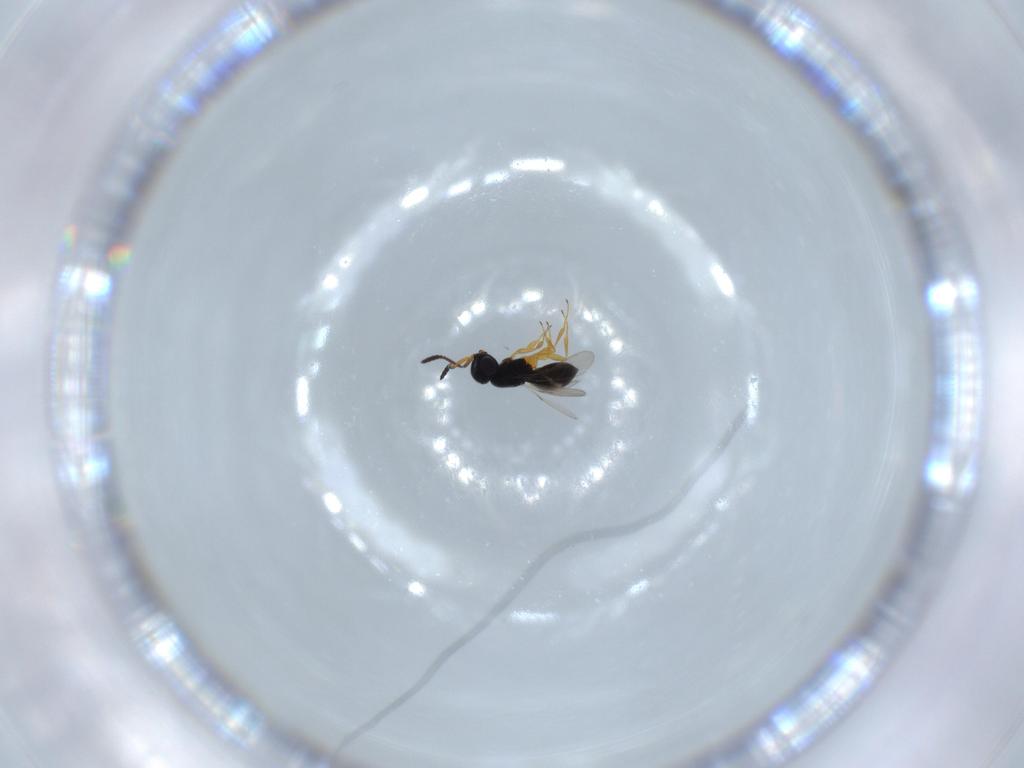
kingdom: Animalia
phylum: Arthropoda
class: Insecta
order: Hymenoptera
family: Scelionidae
